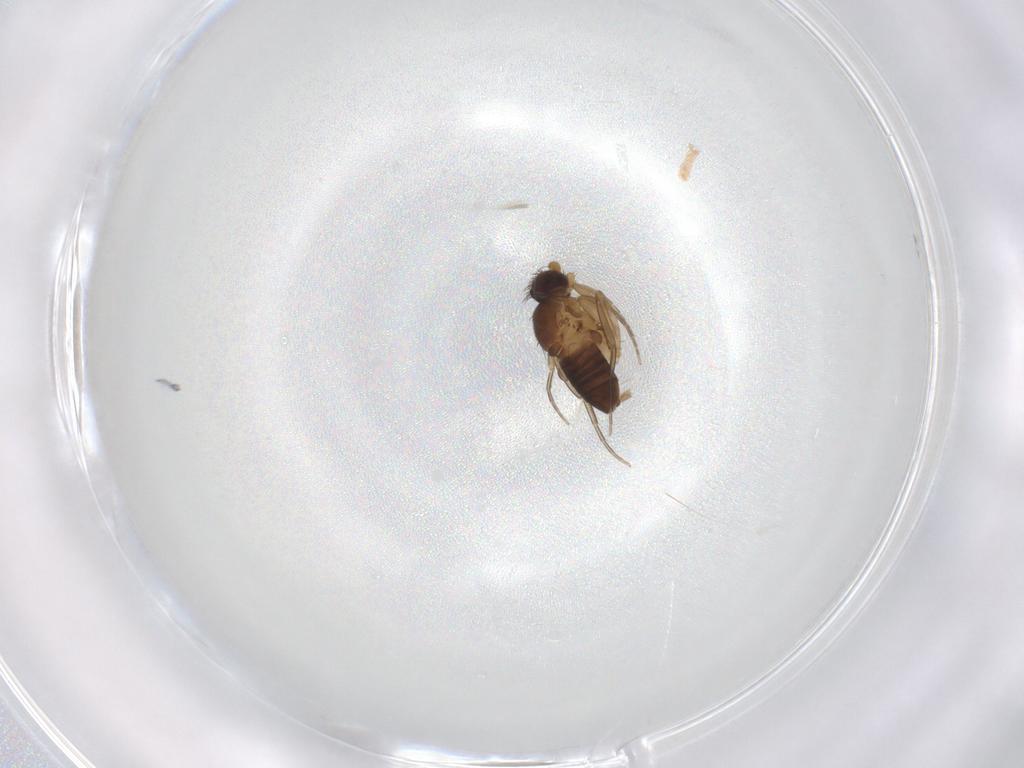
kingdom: Animalia
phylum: Arthropoda
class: Insecta
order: Diptera
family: Phoridae
